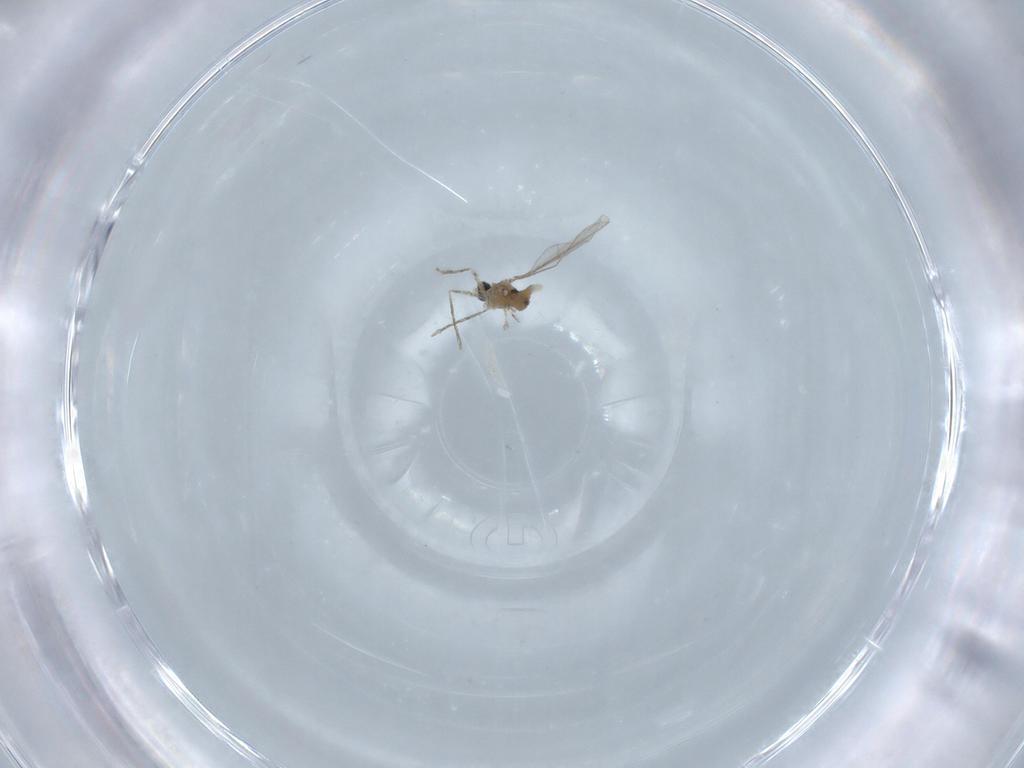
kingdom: Animalia
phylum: Arthropoda
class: Insecta
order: Diptera
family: Cecidomyiidae
